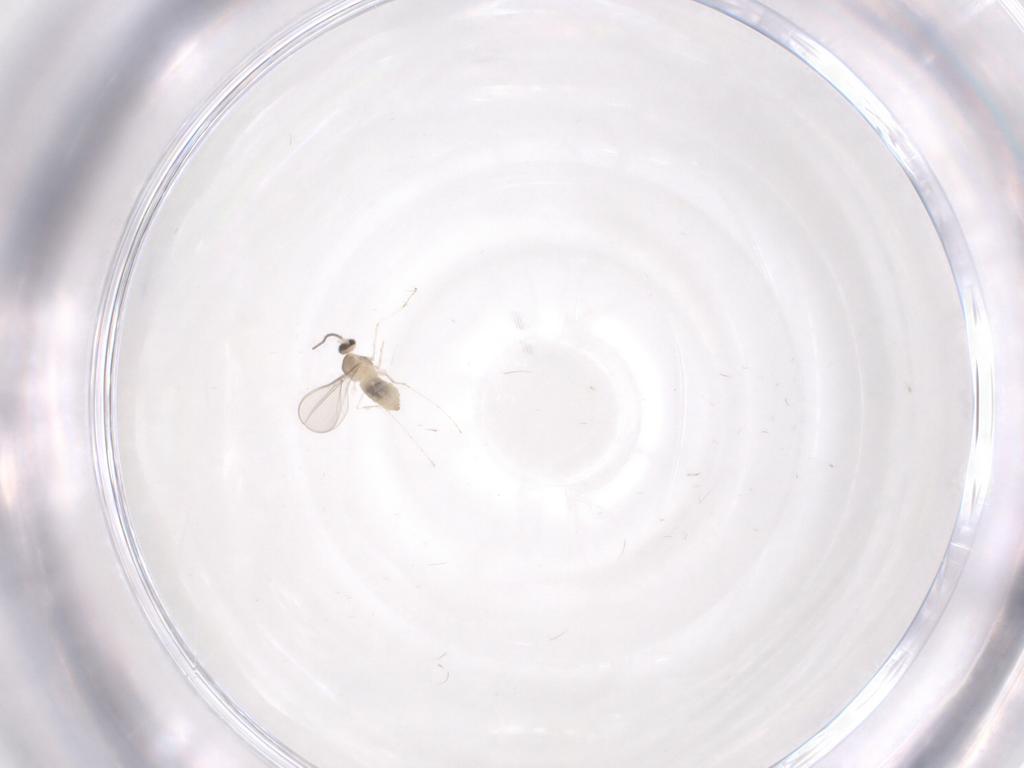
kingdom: Animalia
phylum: Arthropoda
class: Insecta
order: Diptera
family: Cecidomyiidae
